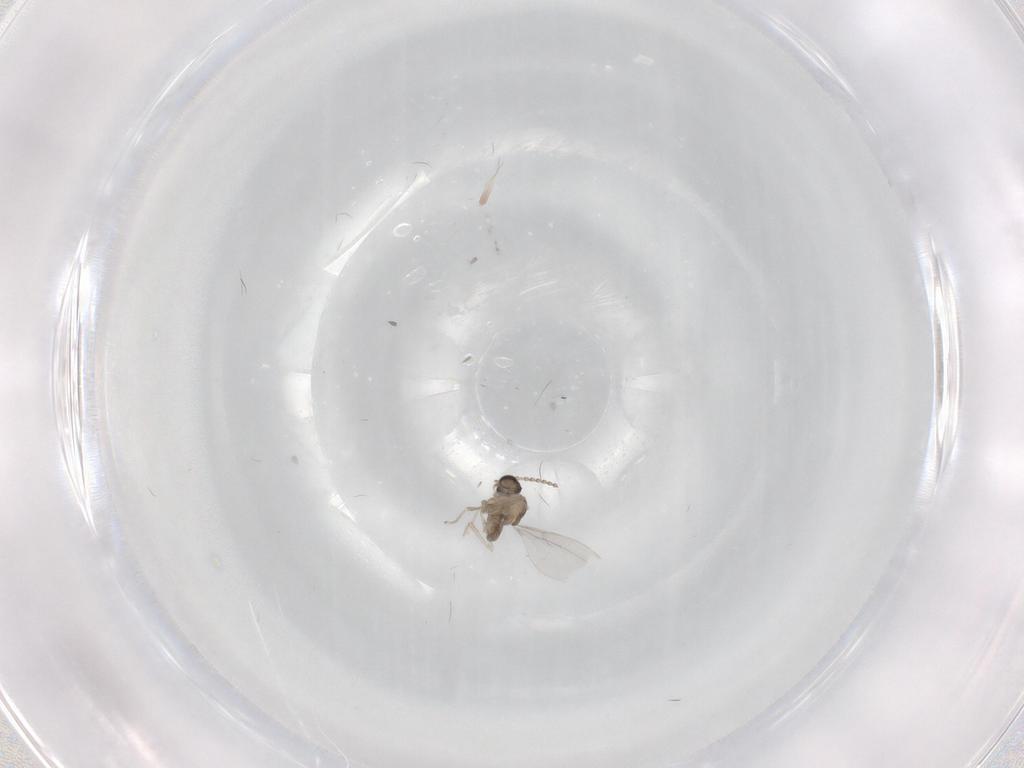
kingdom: Animalia
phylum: Arthropoda
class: Insecta
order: Diptera
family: Cecidomyiidae
